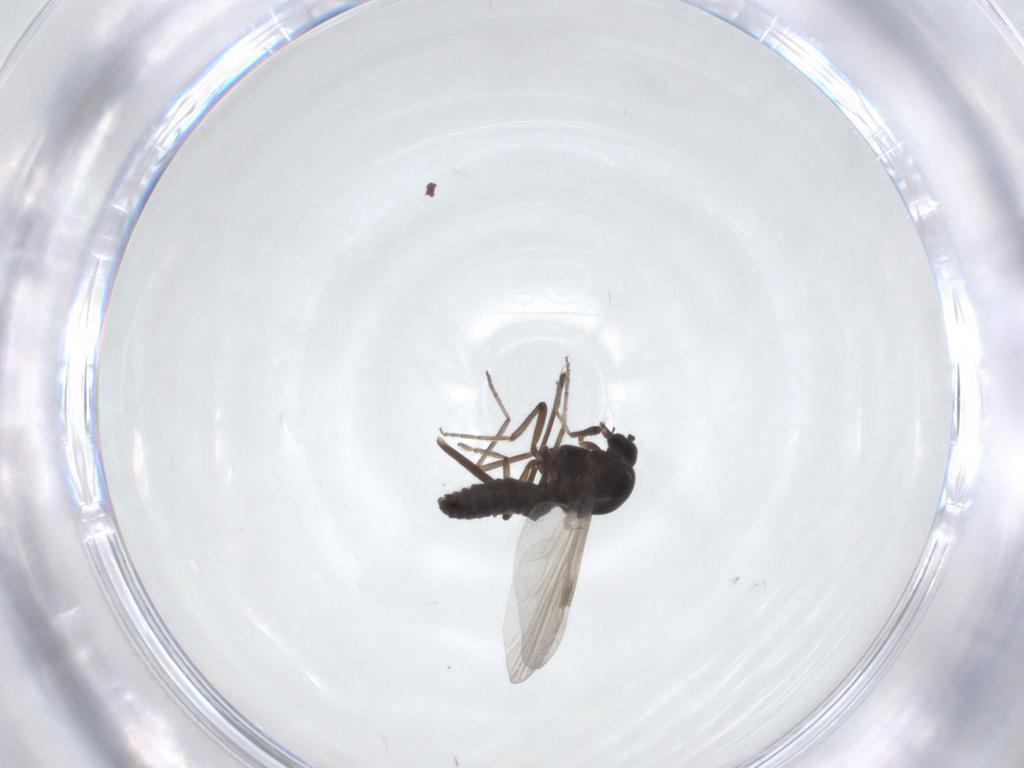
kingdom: Animalia
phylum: Arthropoda
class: Insecta
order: Diptera
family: Ceratopogonidae
